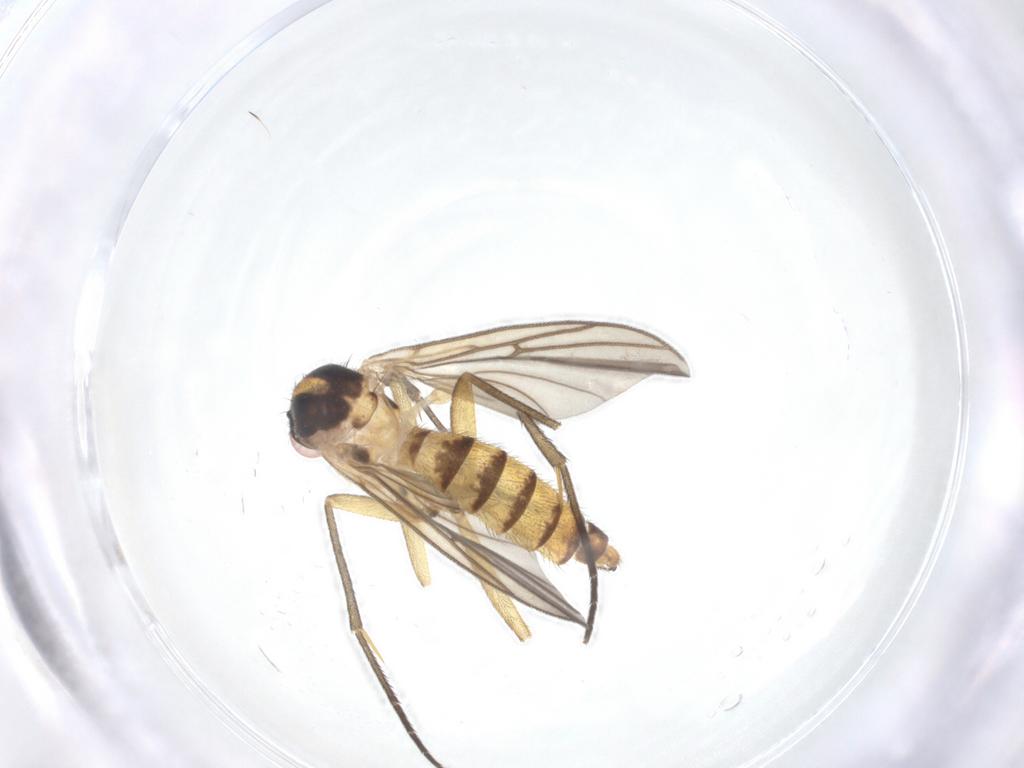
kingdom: Animalia
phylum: Arthropoda
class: Insecta
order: Diptera
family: Mycetophilidae
